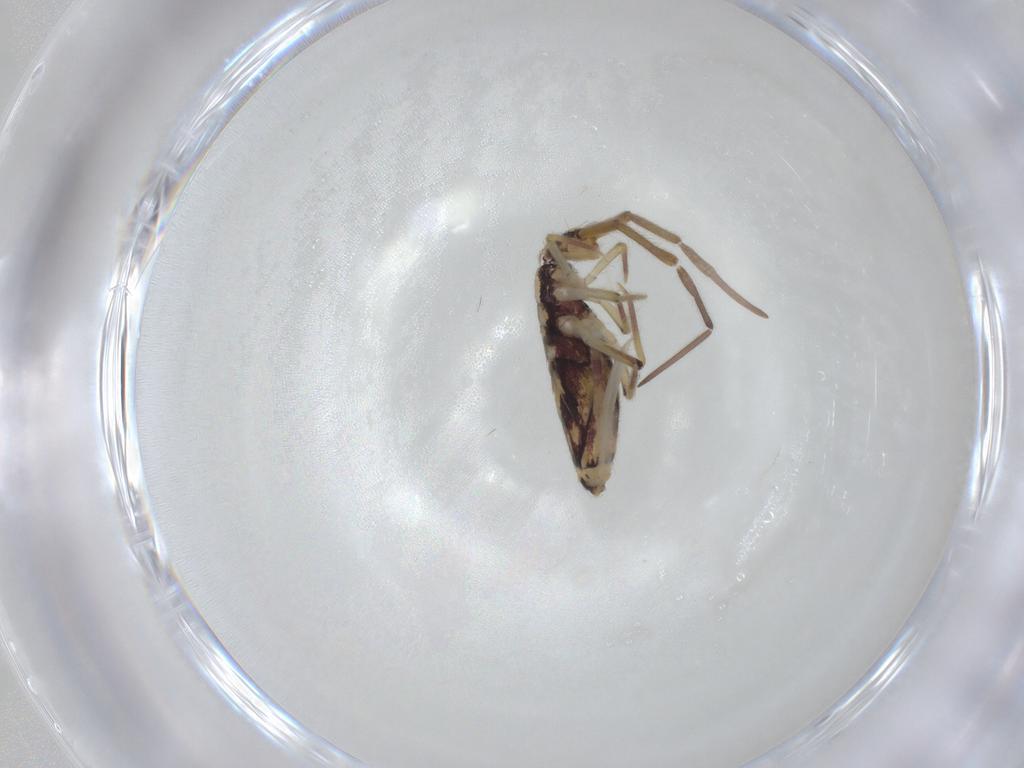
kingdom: Animalia
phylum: Arthropoda
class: Collembola
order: Entomobryomorpha
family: Entomobryidae
